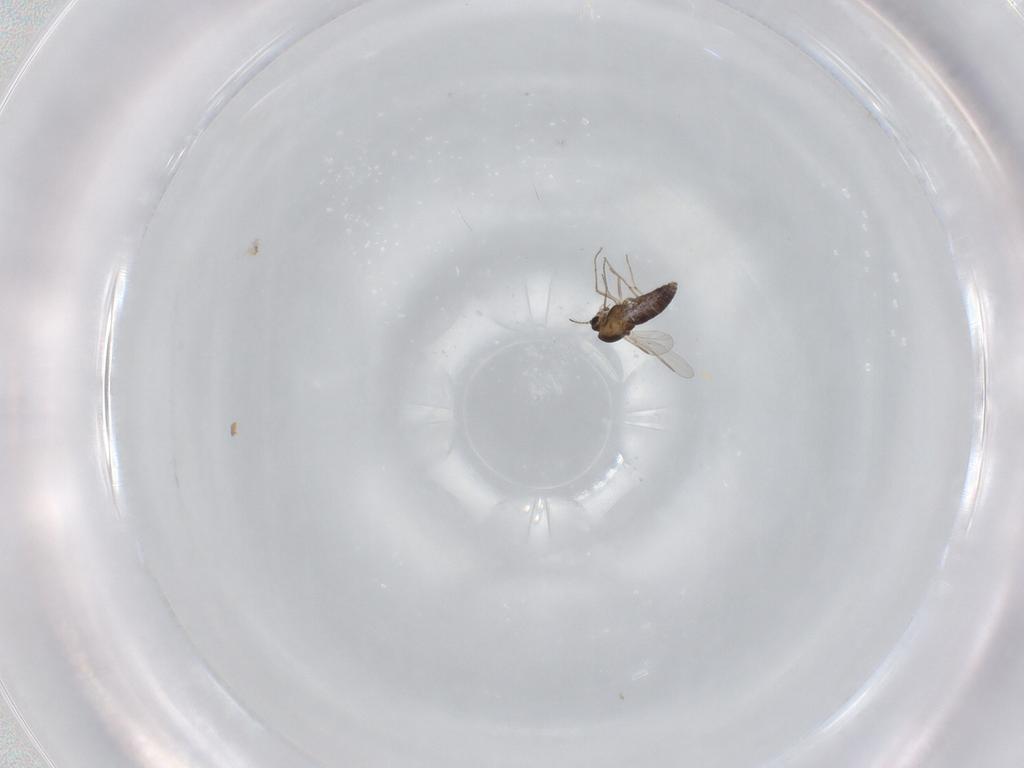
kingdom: Animalia
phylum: Arthropoda
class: Insecta
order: Diptera
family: Chironomidae
